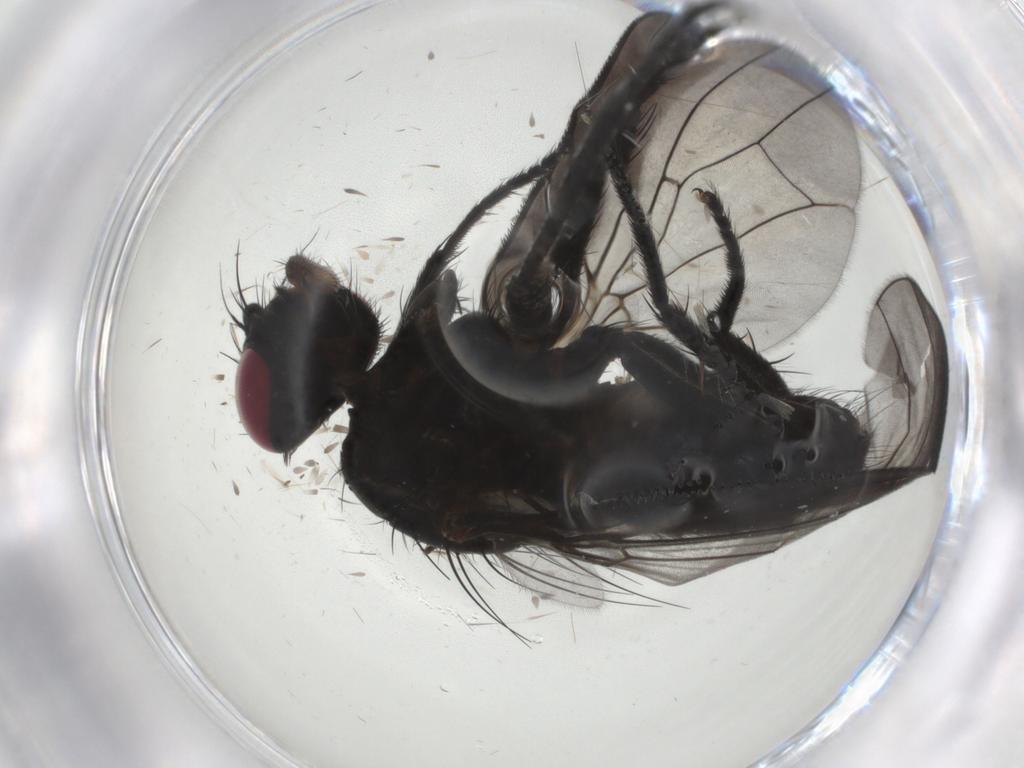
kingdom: Animalia
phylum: Arthropoda
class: Insecta
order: Diptera
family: Fanniidae
